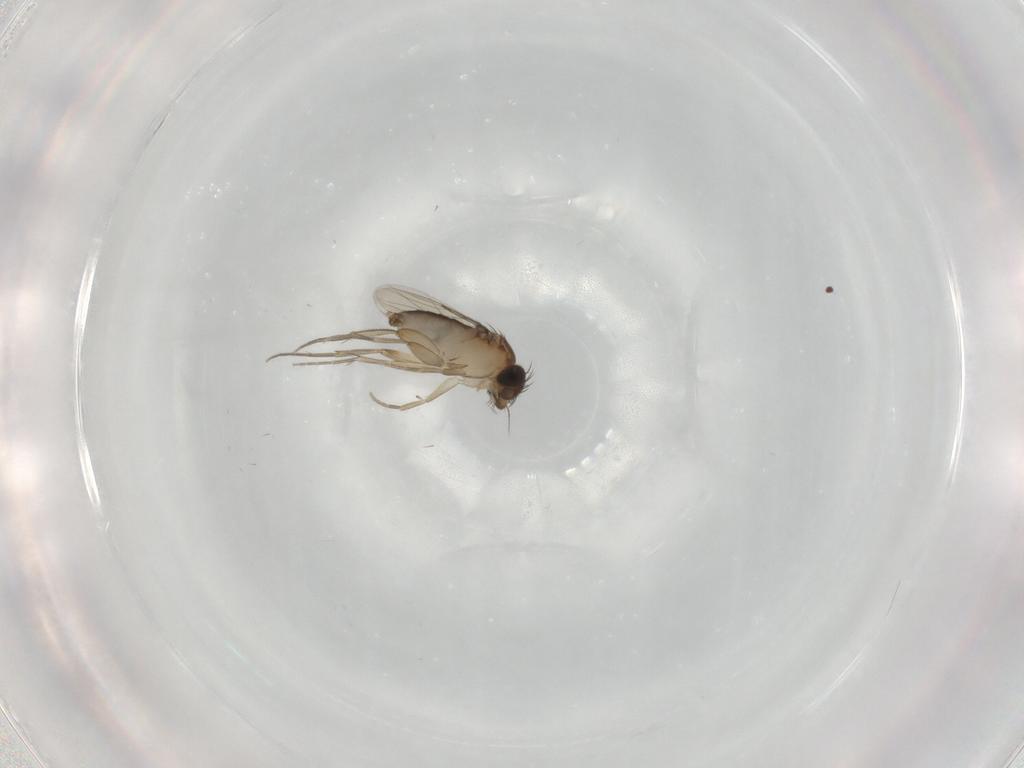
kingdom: Animalia
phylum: Arthropoda
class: Insecta
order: Diptera
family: Phoridae
